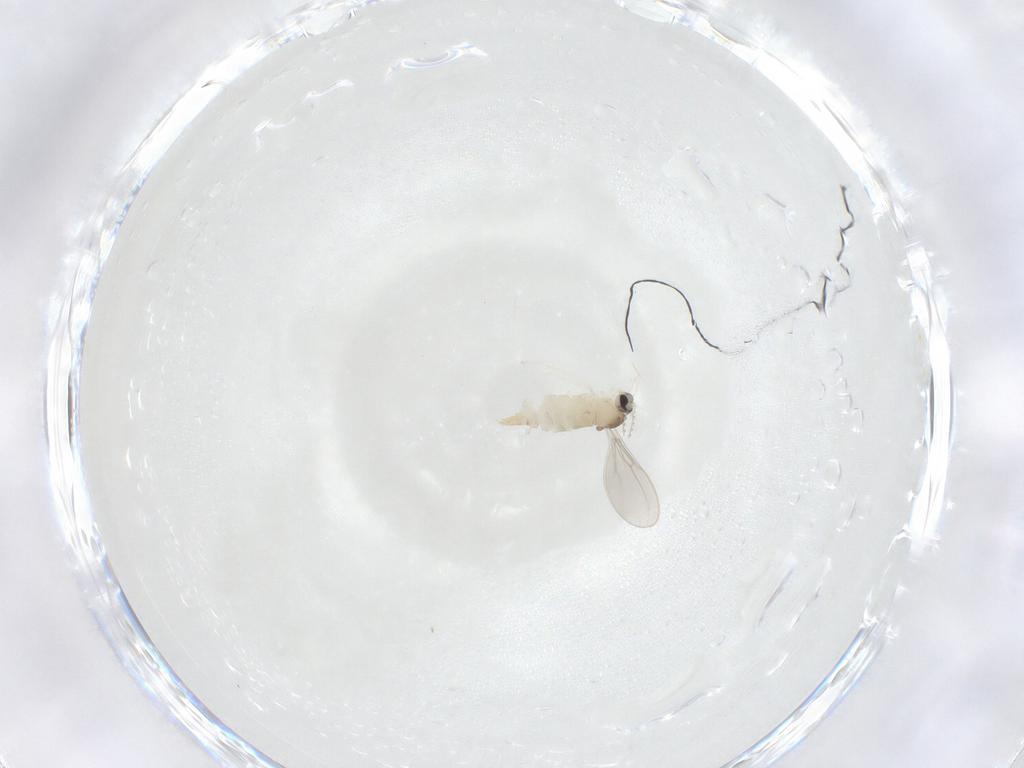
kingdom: Animalia
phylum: Arthropoda
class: Insecta
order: Diptera
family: Cecidomyiidae
